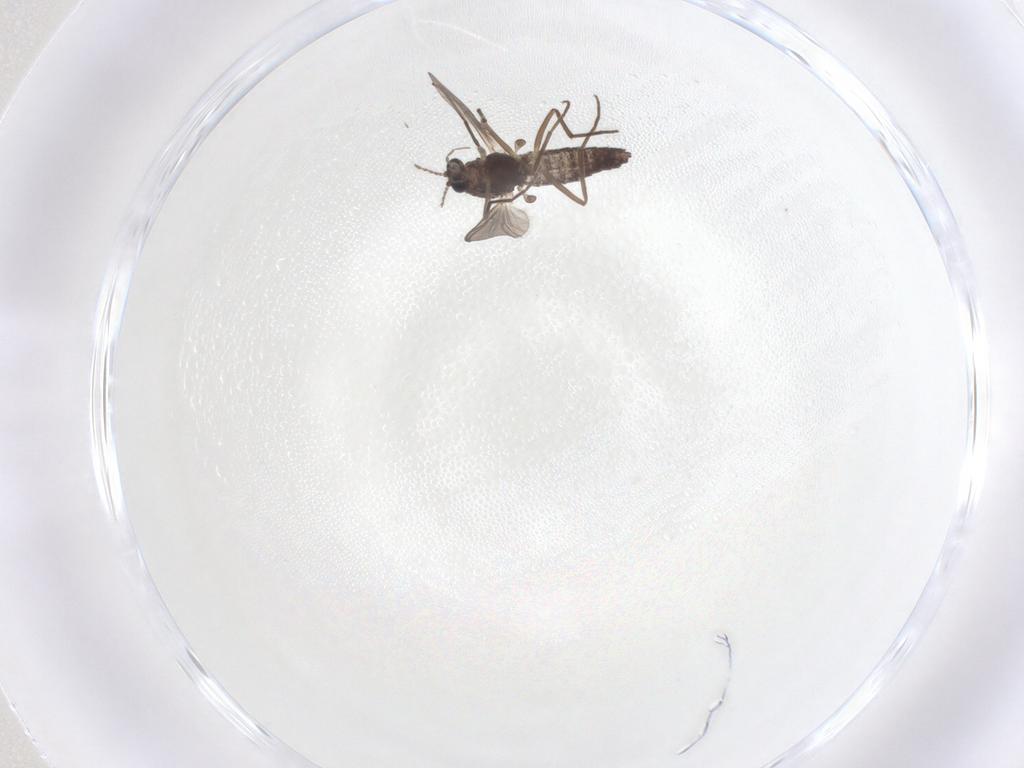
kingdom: Animalia
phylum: Arthropoda
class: Insecta
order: Diptera
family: Chironomidae
